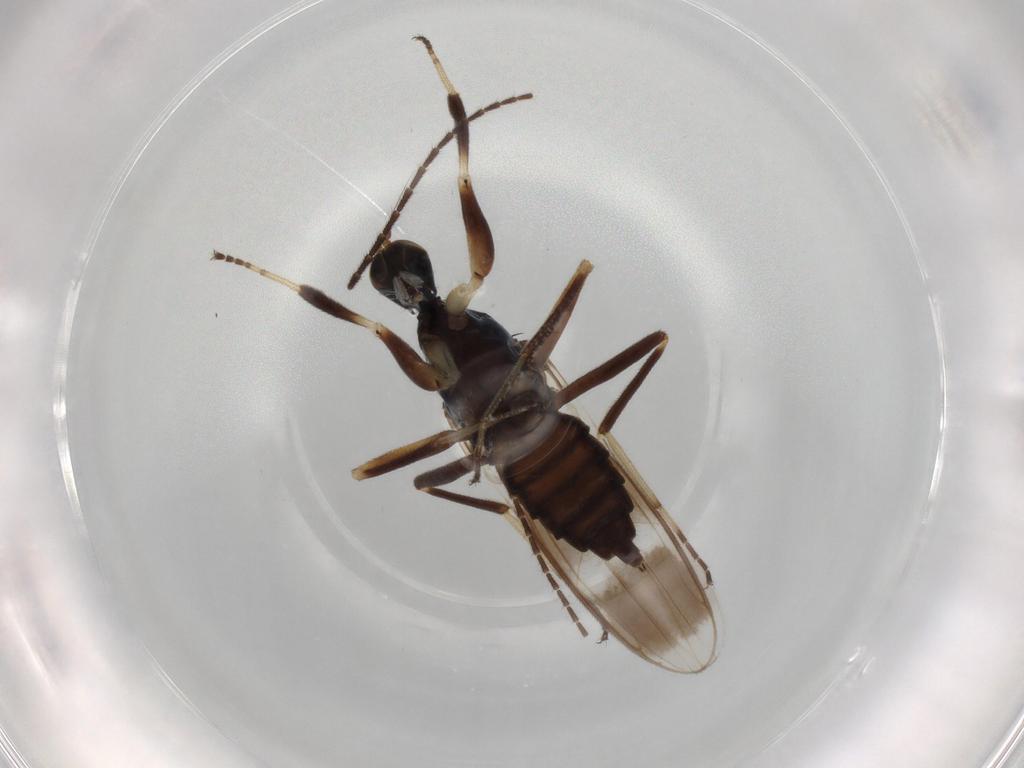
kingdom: Animalia
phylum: Arthropoda
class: Insecta
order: Diptera
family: Hybotidae
